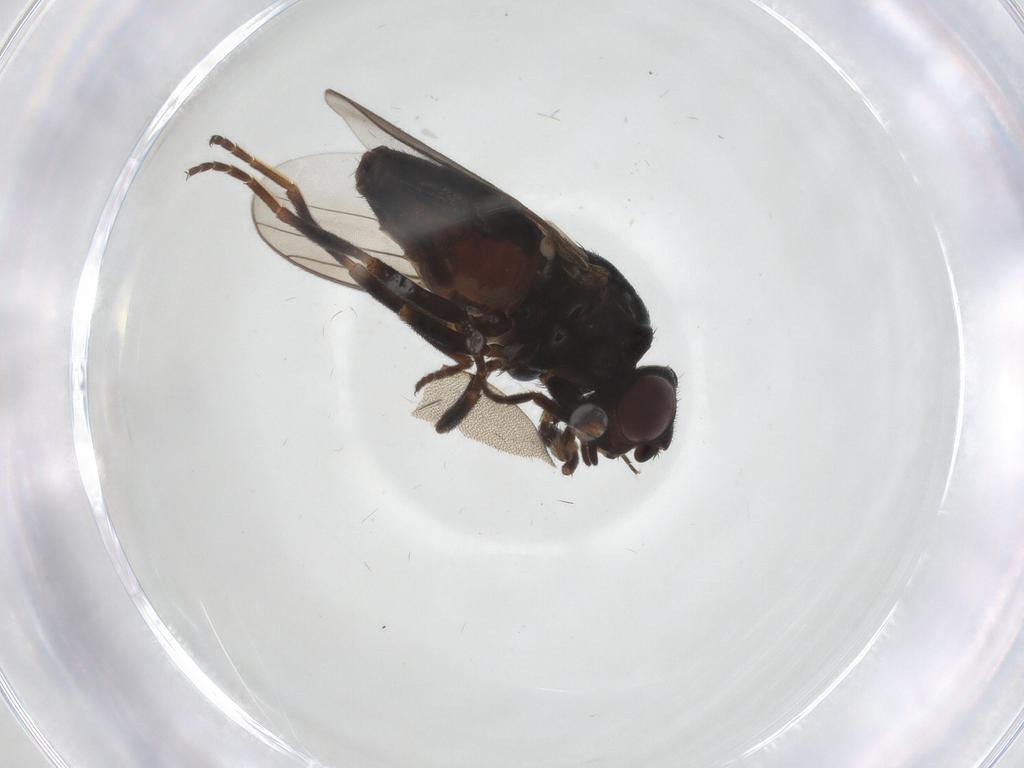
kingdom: Animalia
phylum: Arthropoda
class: Insecta
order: Diptera
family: Chloropidae
